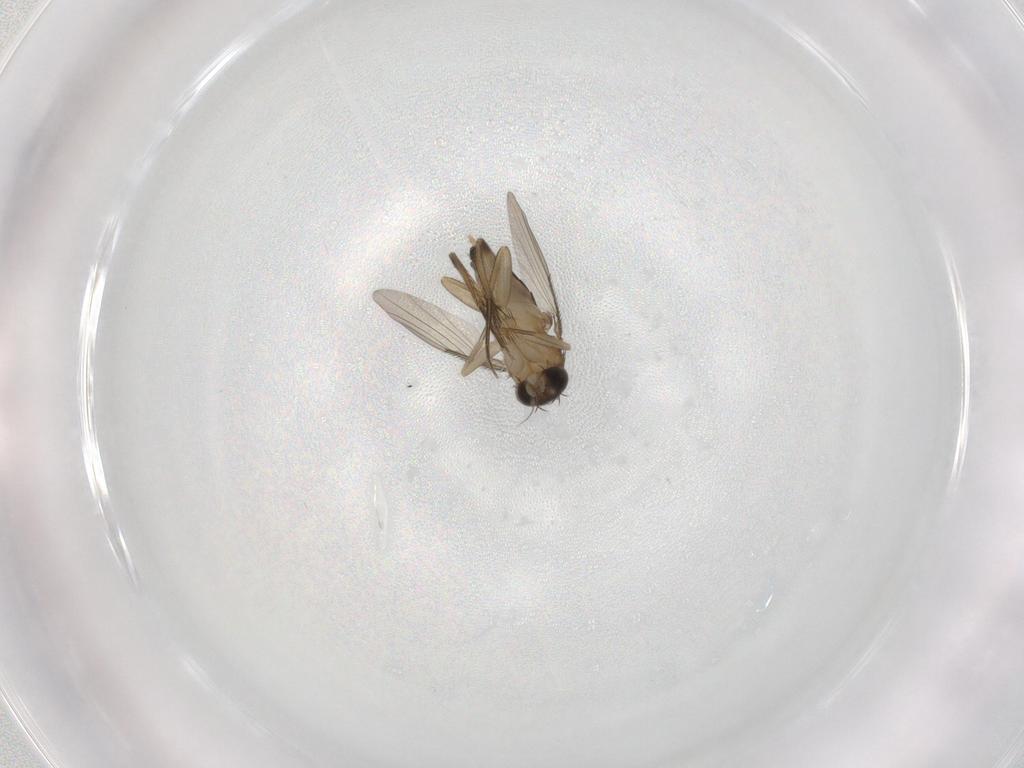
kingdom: Animalia
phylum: Arthropoda
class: Insecta
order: Diptera
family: Phoridae
